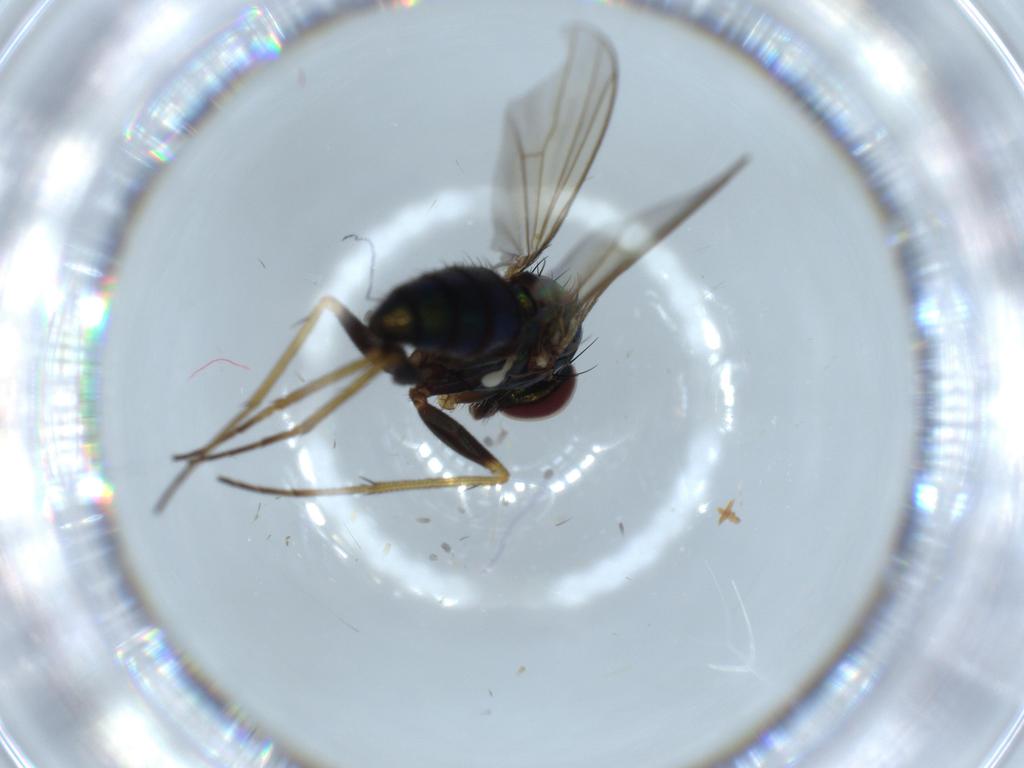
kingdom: Animalia
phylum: Arthropoda
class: Insecta
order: Diptera
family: Dolichopodidae
